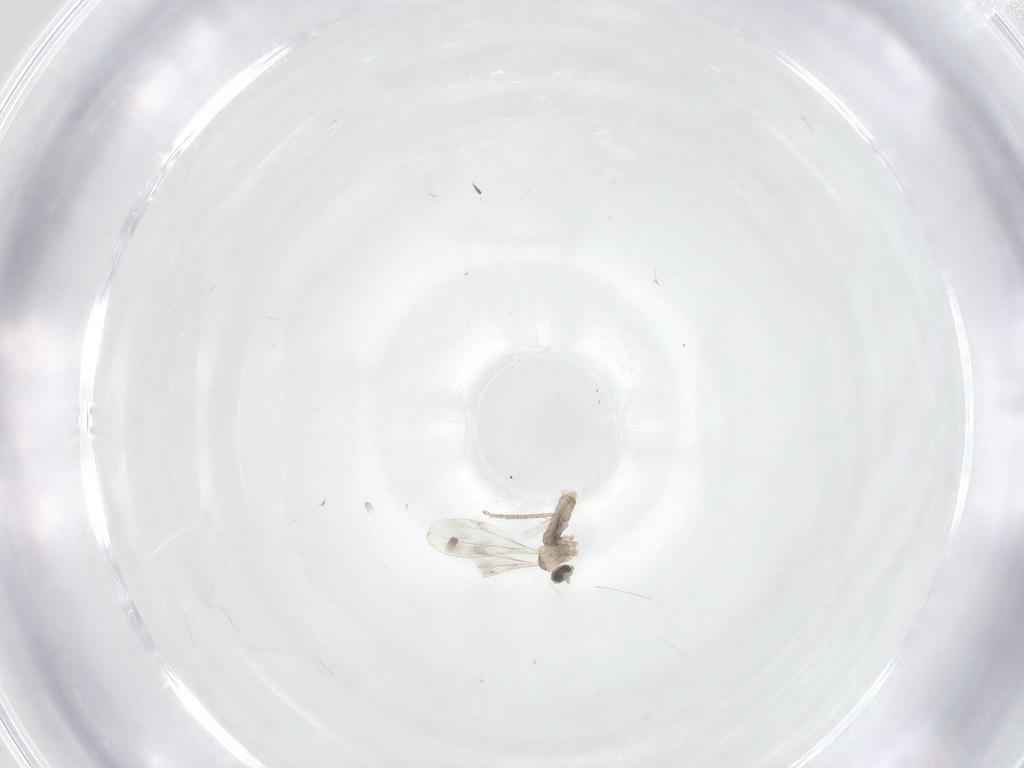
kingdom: Animalia
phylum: Arthropoda
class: Insecta
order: Diptera
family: Cecidomyiidae
